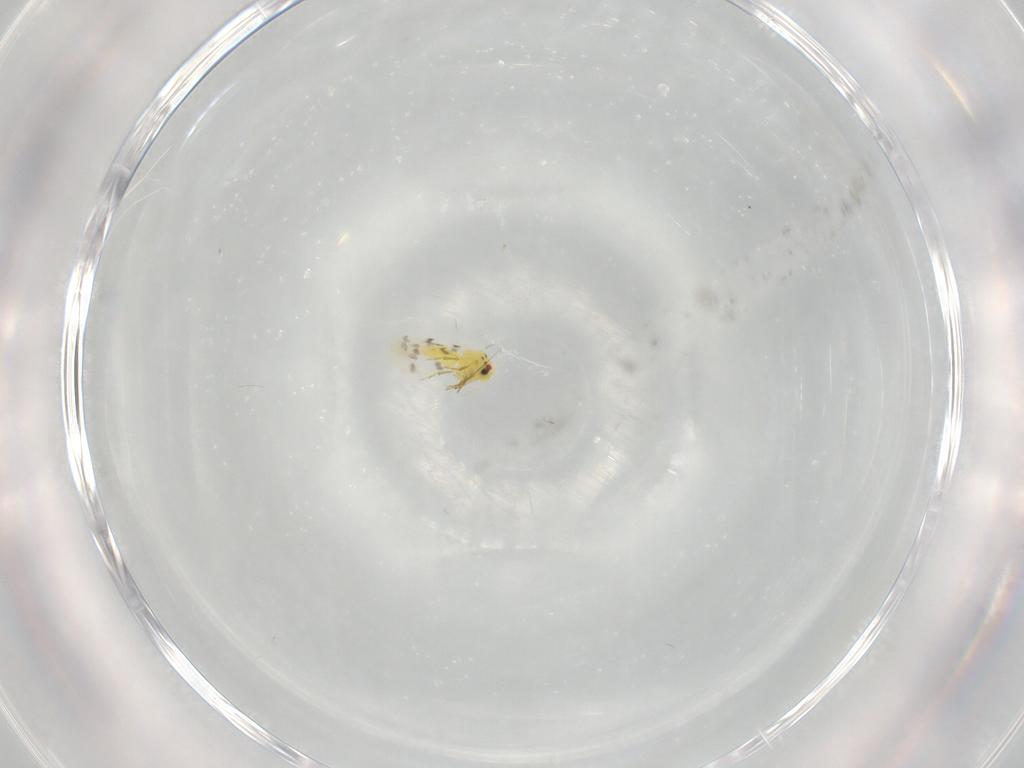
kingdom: Animalia
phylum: Arthropoda
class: Insecta
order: Hemiptera
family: Aleyrodidae
